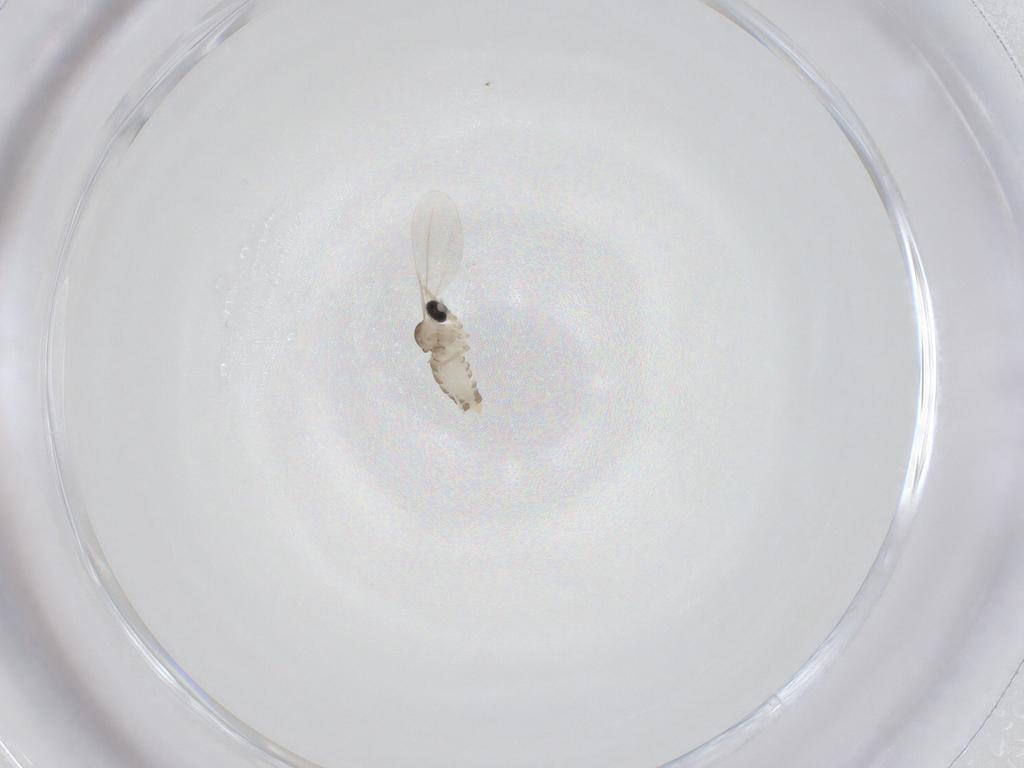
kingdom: Animalia
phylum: Arthropoda
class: Insecta
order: Diptera
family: Cecidomyiidae
